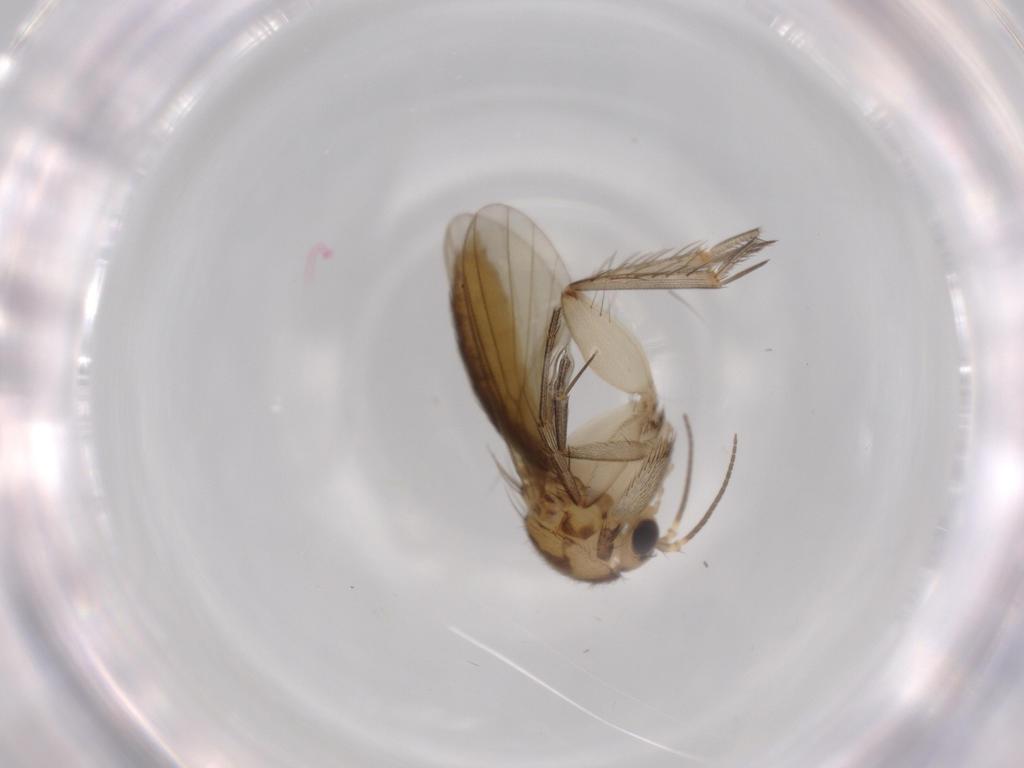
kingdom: Animalia
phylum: Arthropoda
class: Insecta
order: Diptera
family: Mycetophilidae
